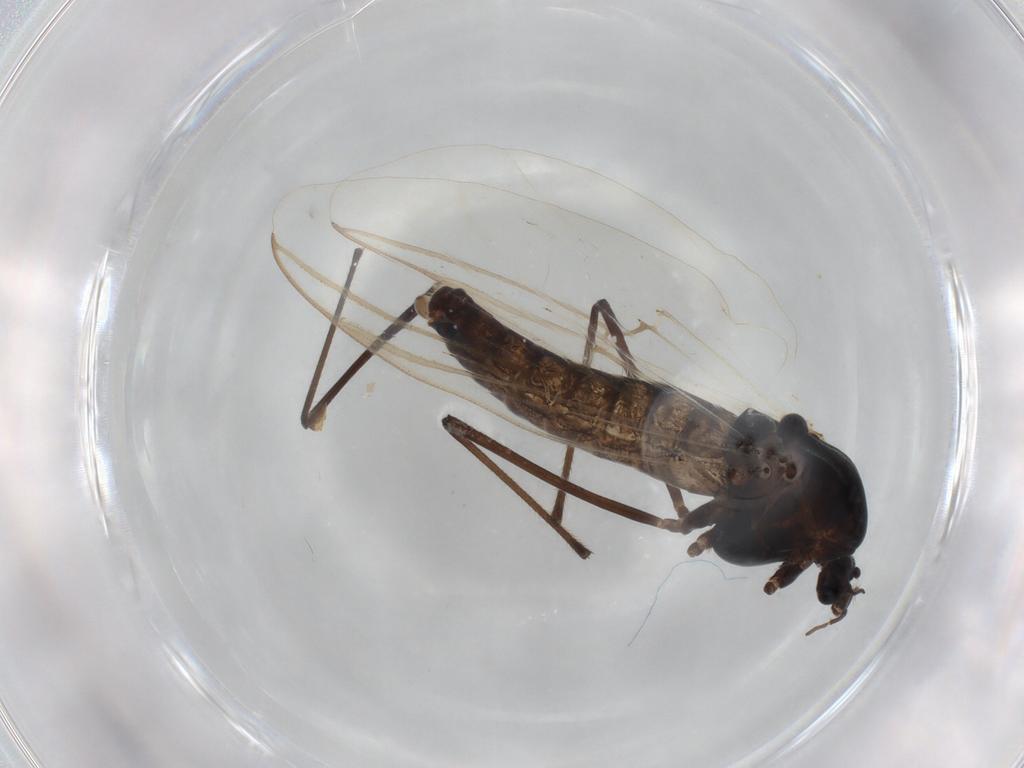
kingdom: Animalia
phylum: Arthropoda
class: Insecta
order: Diptera
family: Chironomidae
